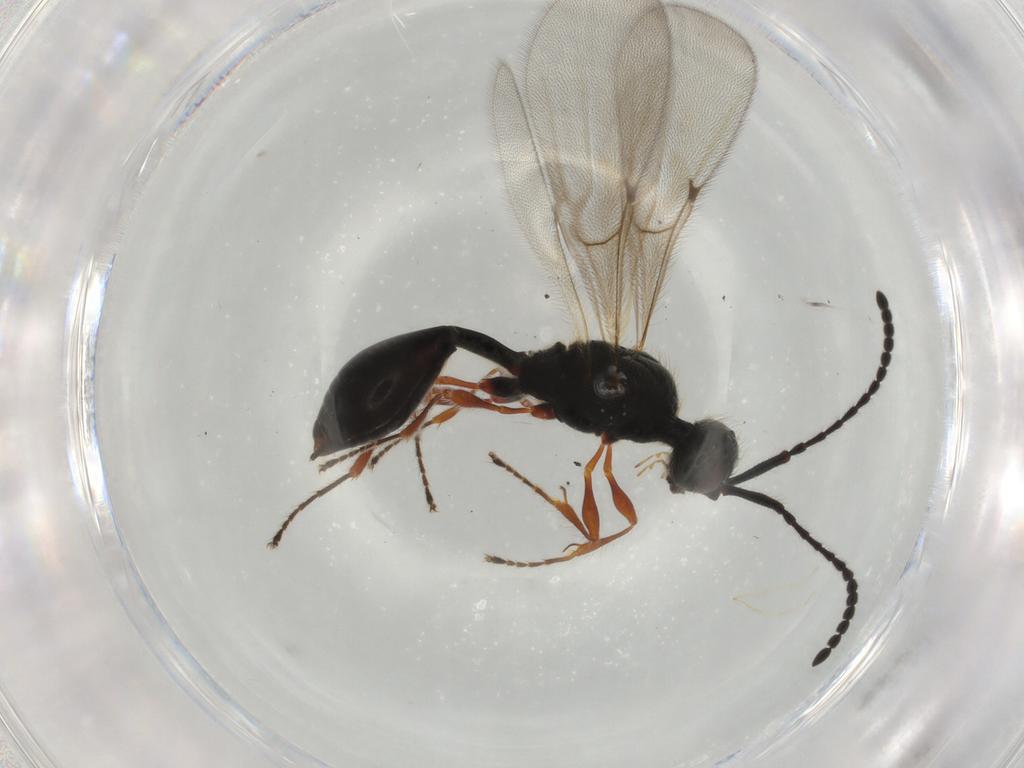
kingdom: Animalia
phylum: Arthropoda
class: Insecta
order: Hymenoptera
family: Diapriidae
